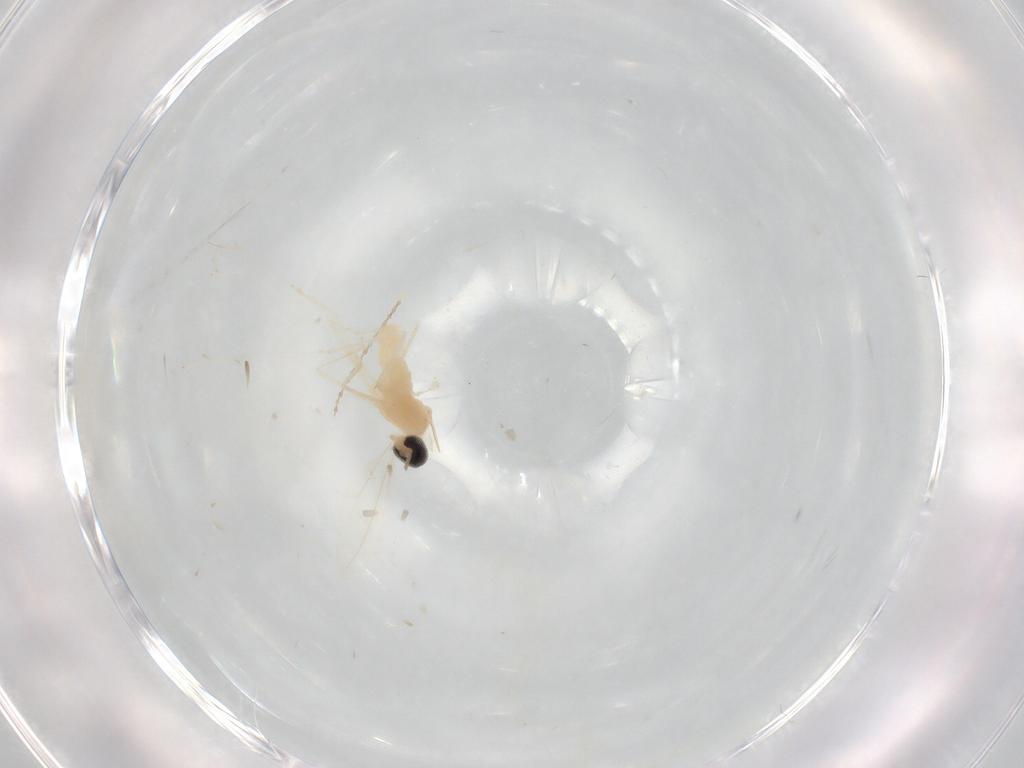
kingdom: Animalia
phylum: Arthropoda
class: Insecta
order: Diptera
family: Cecidomyiidae
